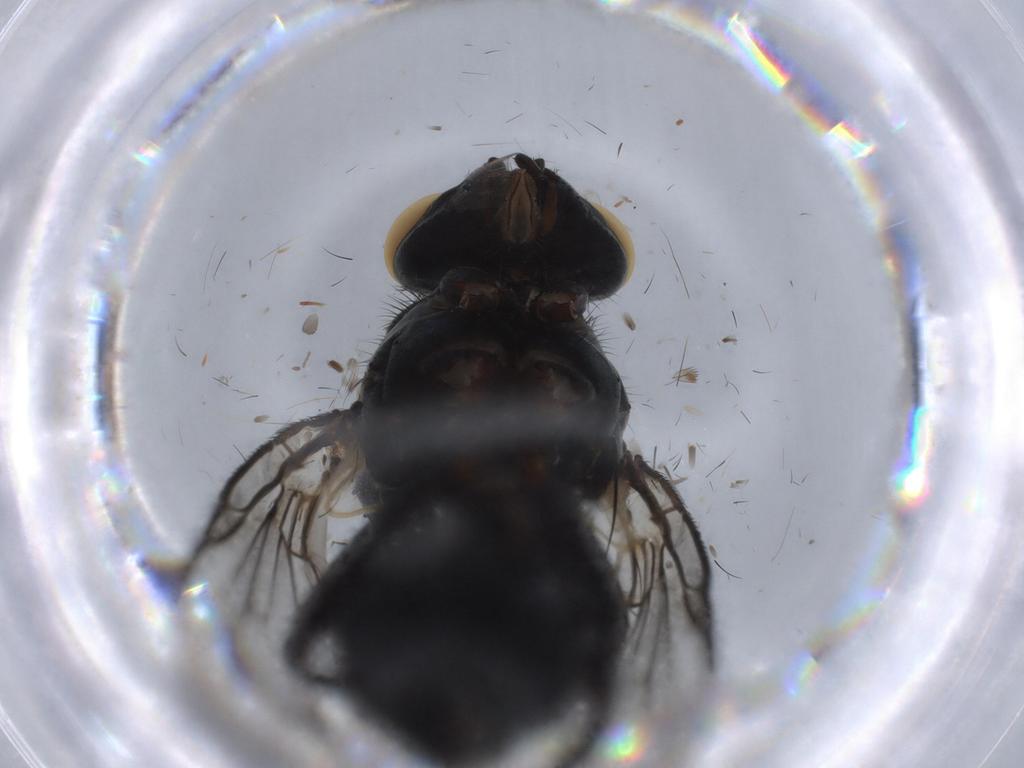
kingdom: Animalia
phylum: Arthropoda
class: Insecta
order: Diptera
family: Muscidae
